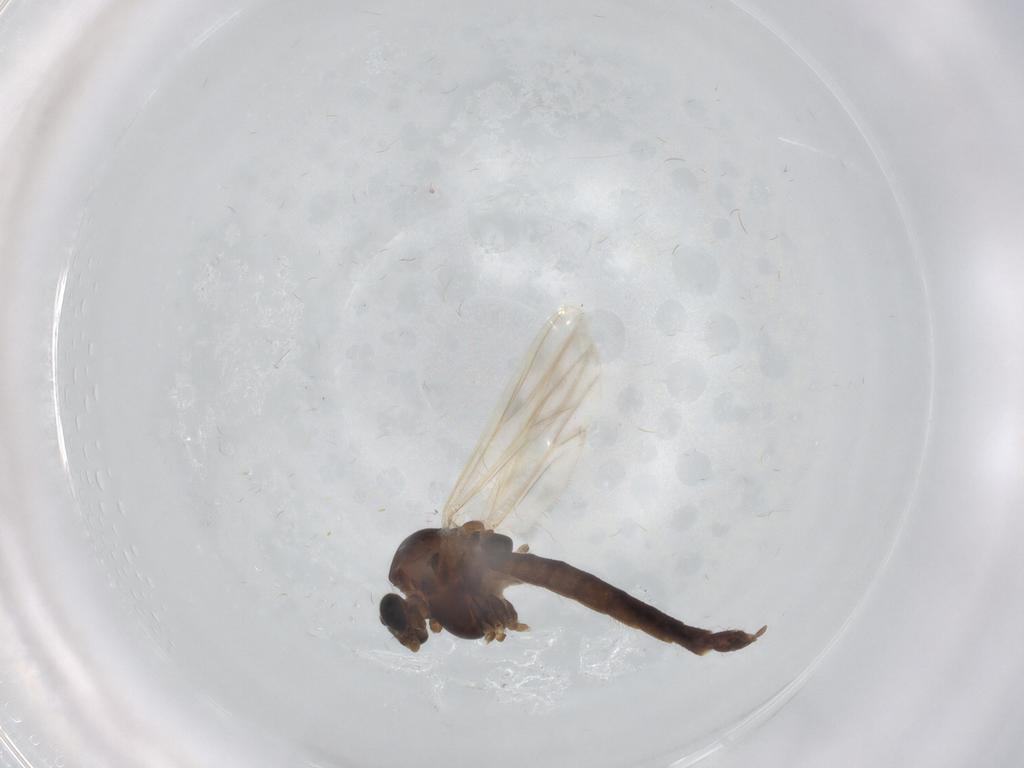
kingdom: Animalia
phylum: Arthropoda
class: Insecta
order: Diptera
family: Chironomidae
